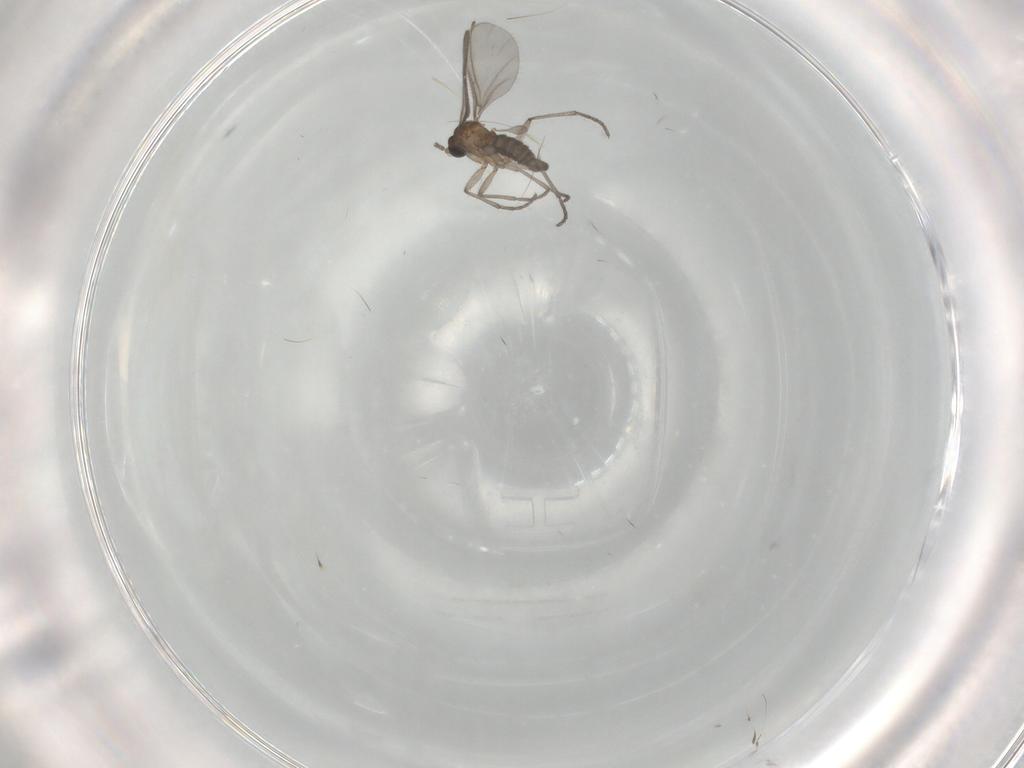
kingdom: Animalia
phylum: Arthropoda
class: Insecta
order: Diptera
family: Sciaridae
